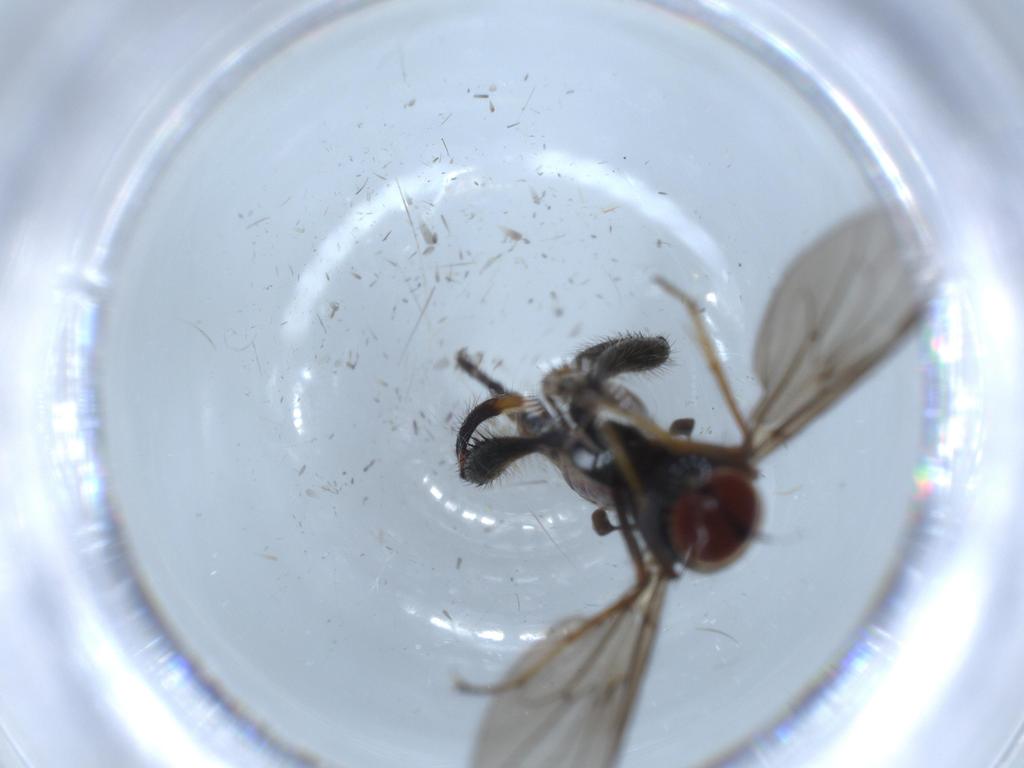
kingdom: Animalia
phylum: Arthropoda
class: Insecta
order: Diptera
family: Hybotidae
